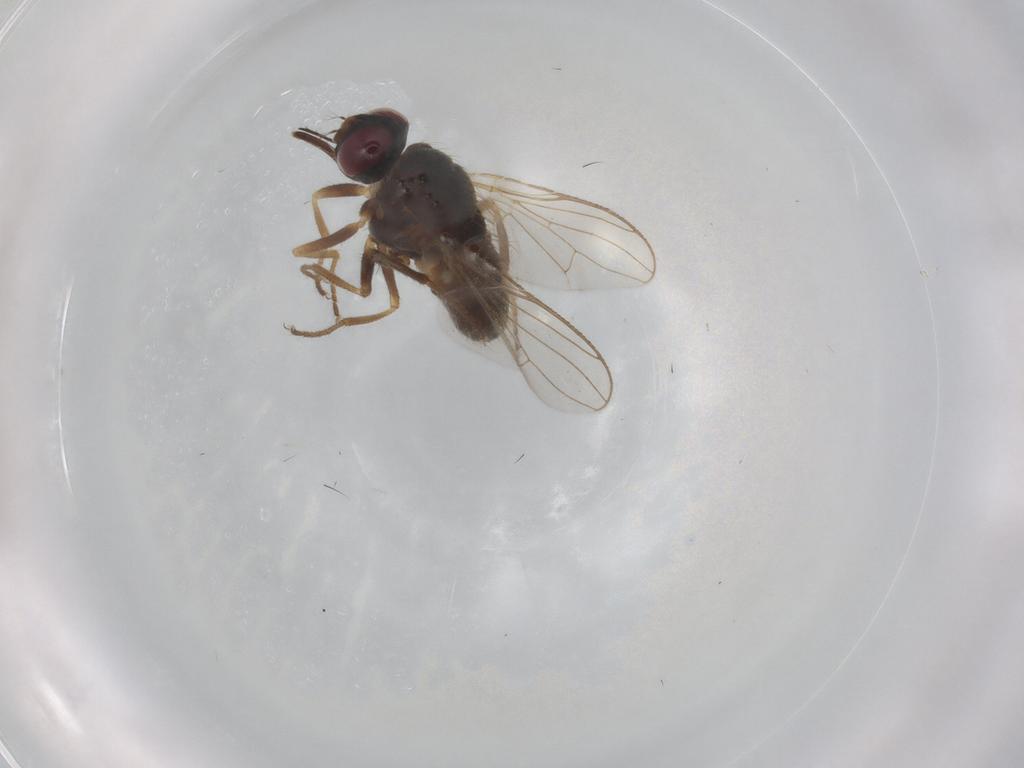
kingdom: Animalia
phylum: Arthropoda
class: Insecta
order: Diptera
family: Muscidae
